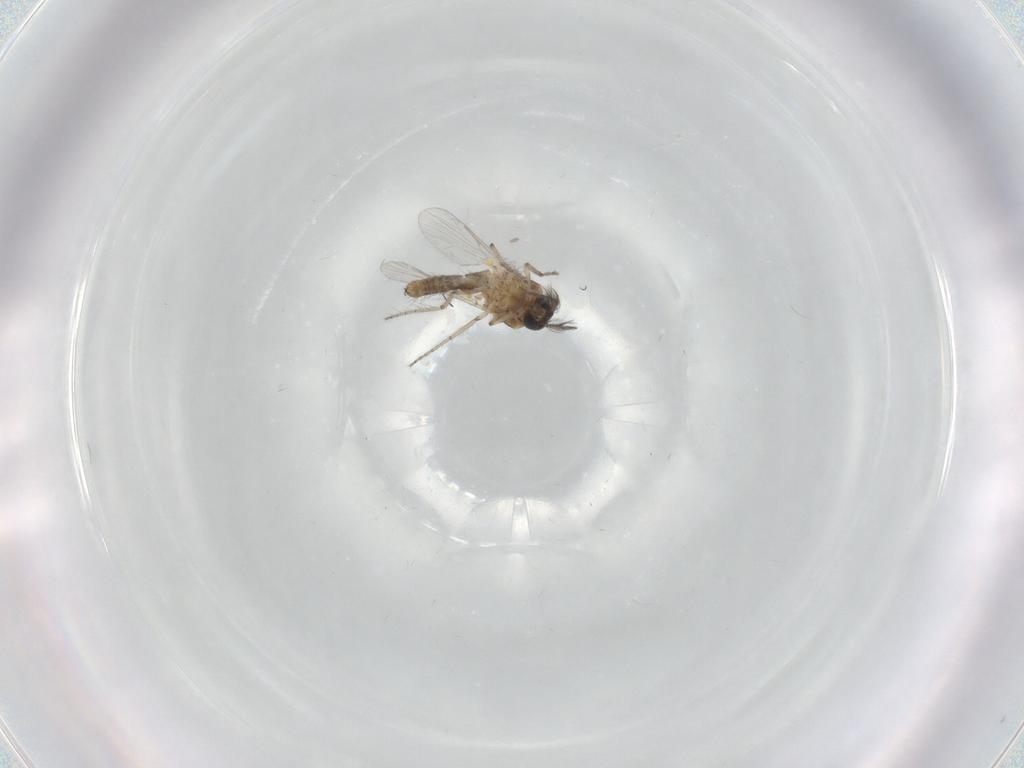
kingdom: Animalia
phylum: Arthropoda
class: Insecta
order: Diptera
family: Ceratopogonidae
